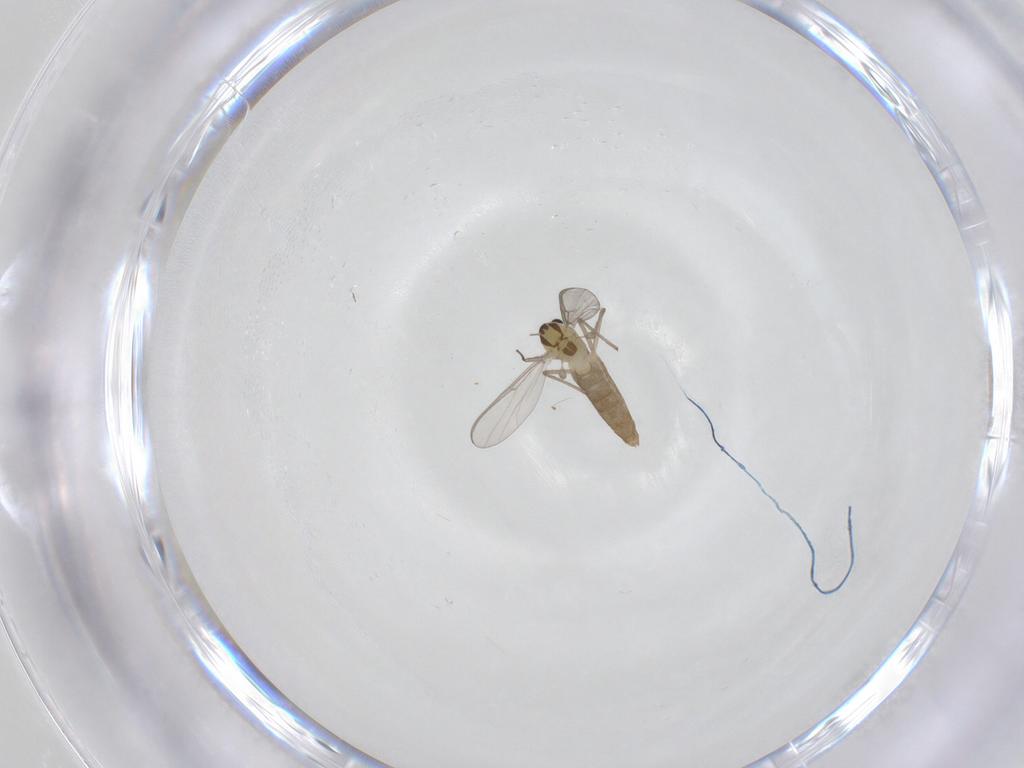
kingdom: Animalia
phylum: Arthropoda
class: Insecta
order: Diptera
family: Chironomidae
